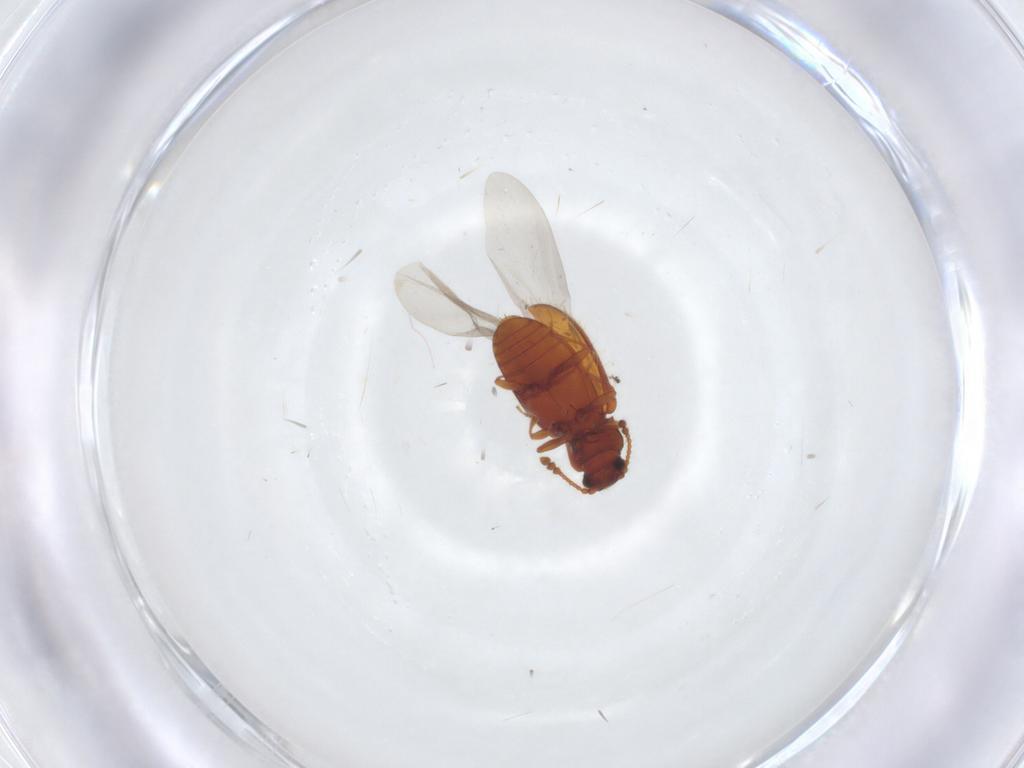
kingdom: Animalia
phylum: Arthropoda
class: Insecta
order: Coleoptera
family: Cryptophagidae
